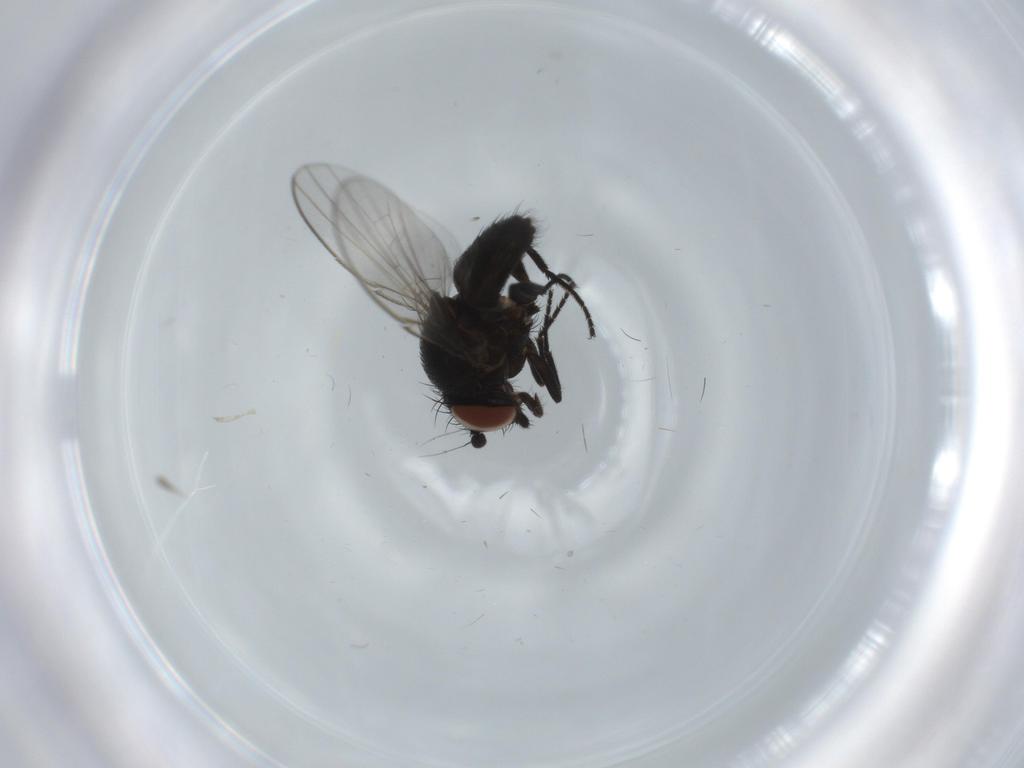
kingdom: Animalia
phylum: Arthropoda
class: Insecta
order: Diptera
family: Milichiidae
